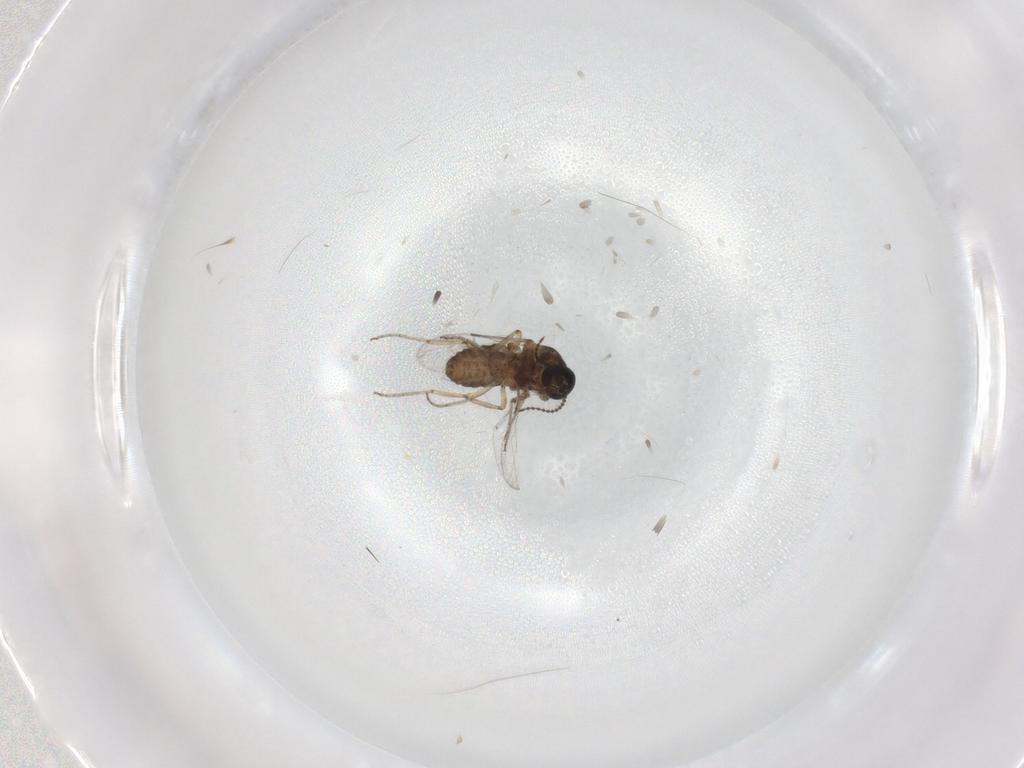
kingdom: Animalia
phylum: Arthropoda
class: Insecta
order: Diptera
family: Ceratopogonidae
